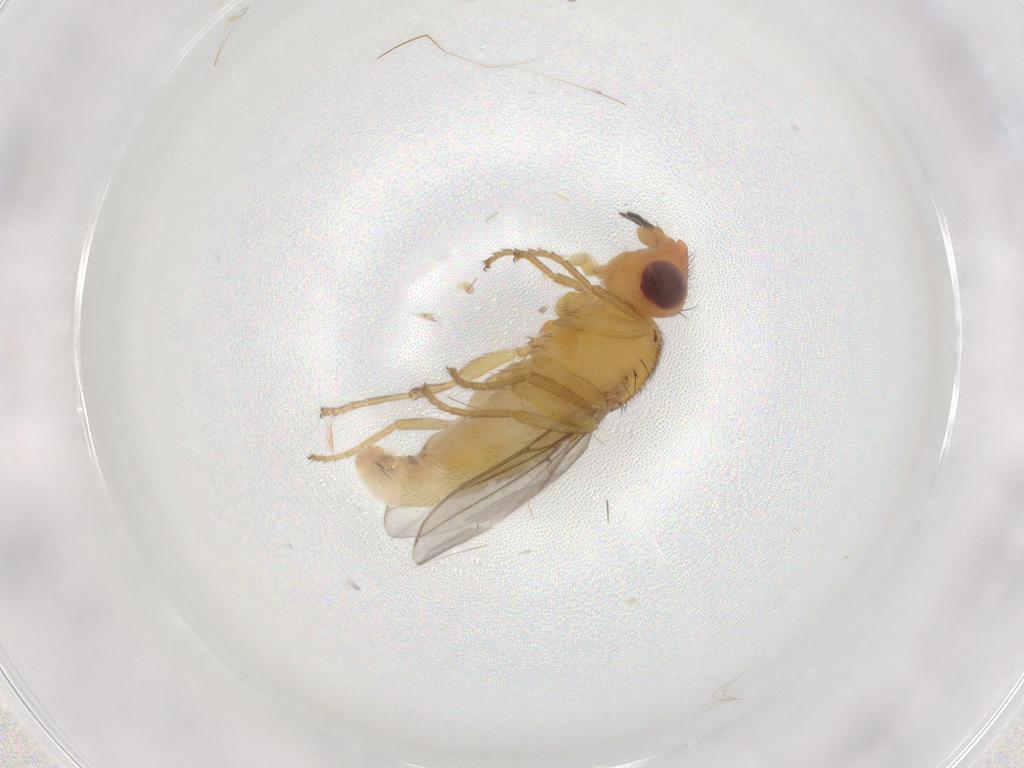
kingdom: Animalia
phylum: Arthropoda
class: Insecta
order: Diptera
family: Chloropidae
